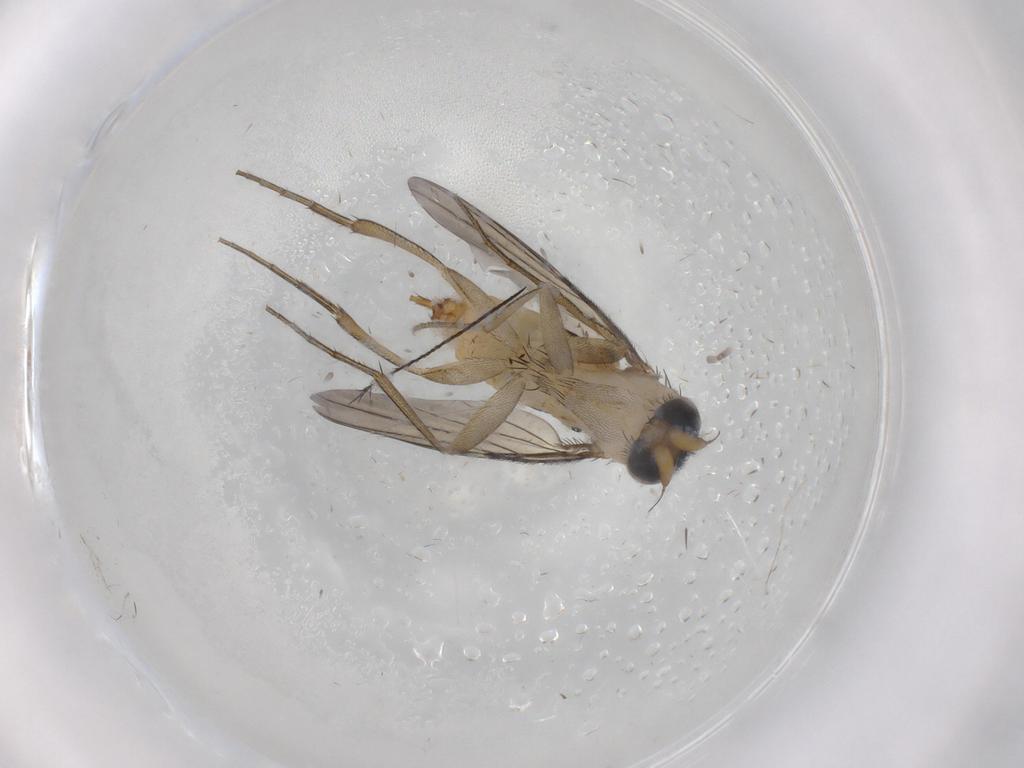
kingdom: Animalia
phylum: Arthropoda
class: Insecta
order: Diptera
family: Phoridae
